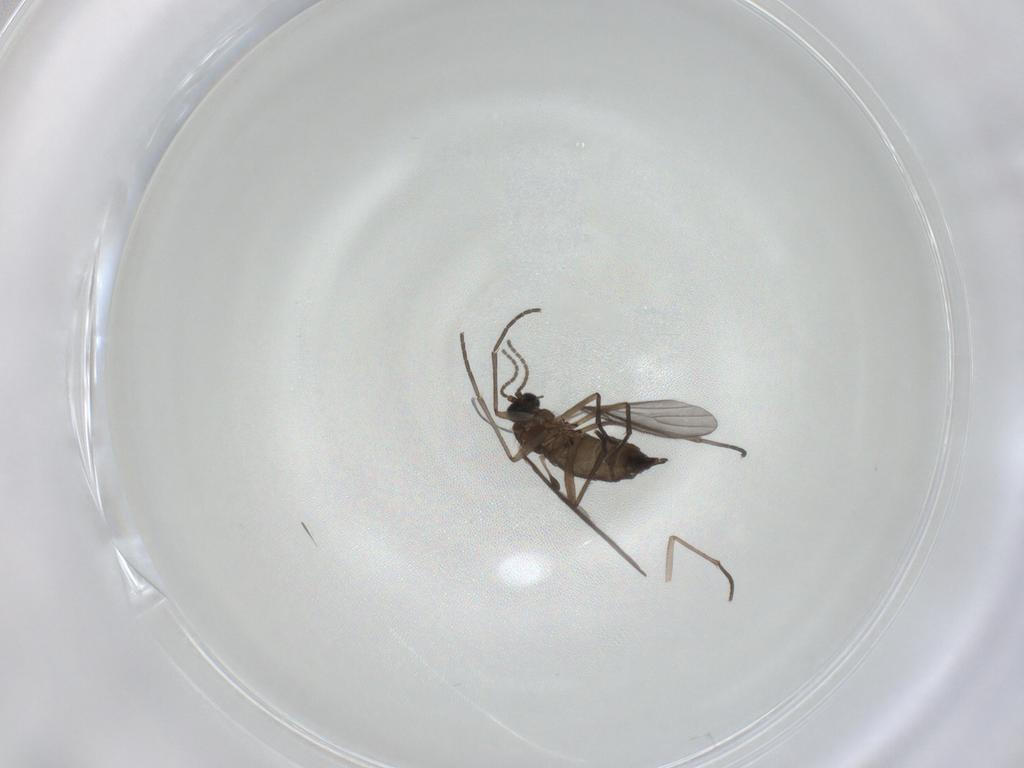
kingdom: Animalia
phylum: Arthropoda
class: Insecta
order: Diptera
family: Sciaridae
